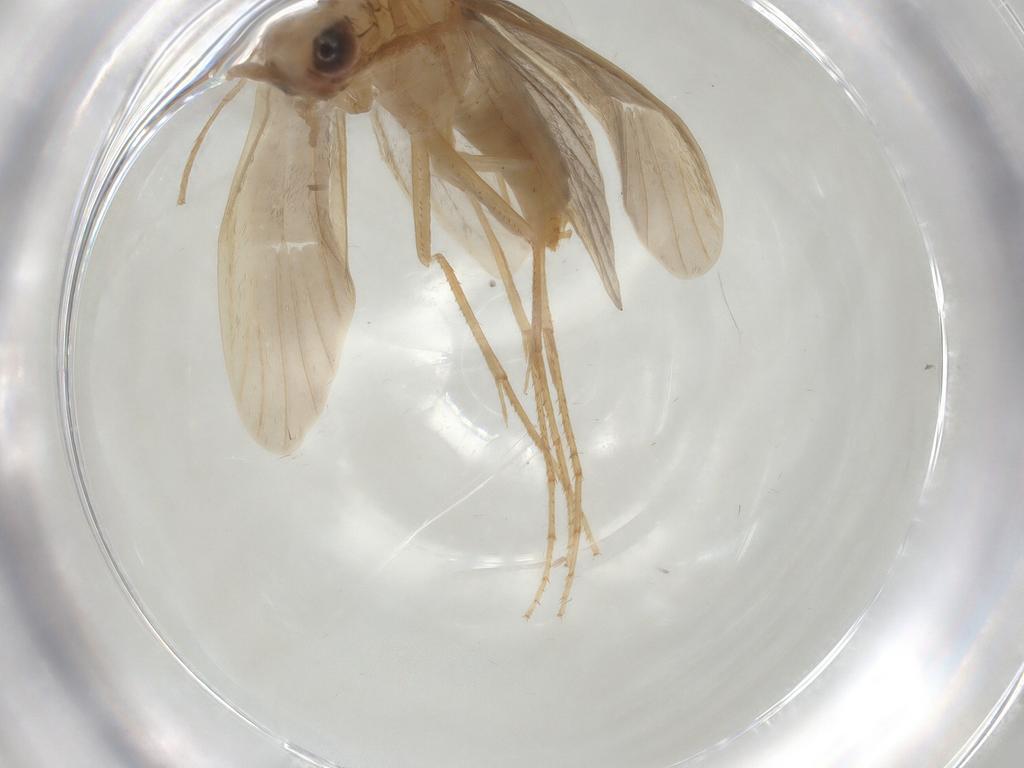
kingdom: Animalia
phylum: Arthropoda
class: Insecta
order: Trichoptera
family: Leptoceridae
